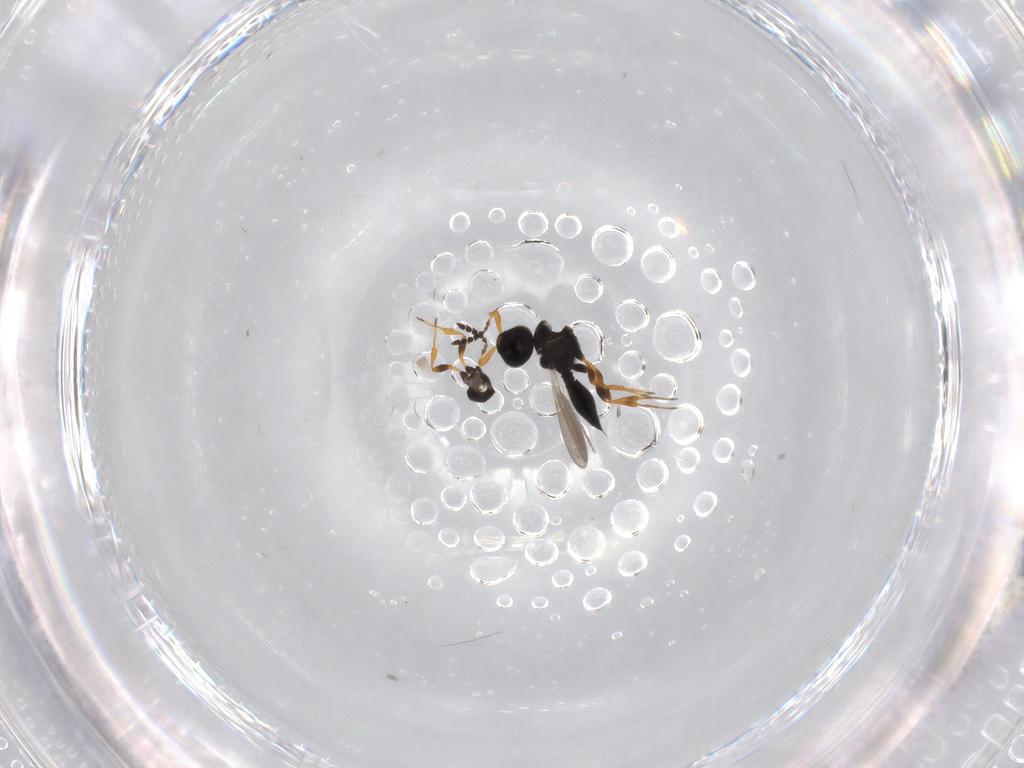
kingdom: Animalia
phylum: Arthropoda
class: Insecta
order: Hymenoptera
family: Platygastridae
